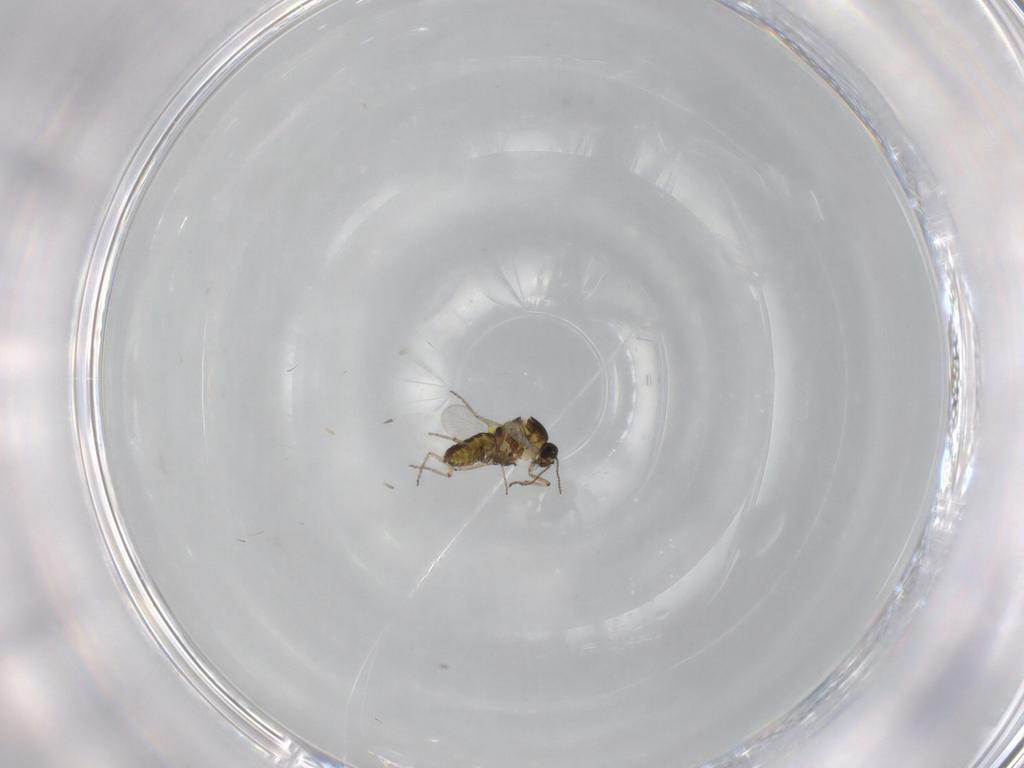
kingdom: Animalia
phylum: Arthropoda
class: Insecta
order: Diptera
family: Ceratopogonidae
